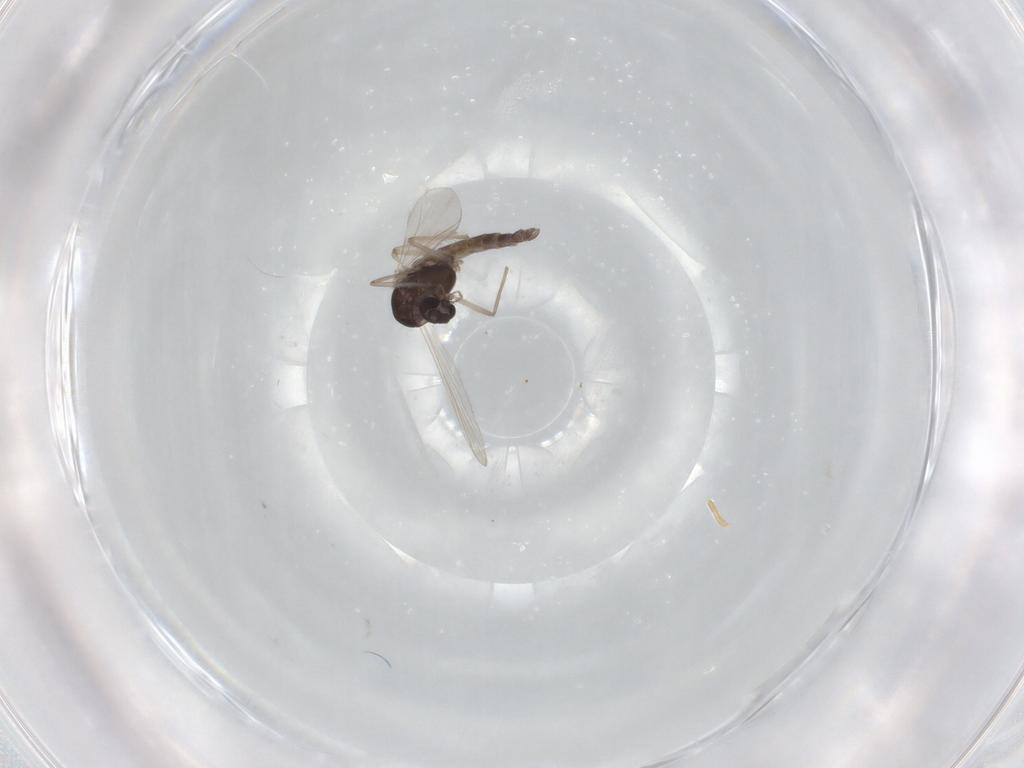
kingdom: Animalia
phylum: Arthropoda
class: Insecta
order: Diptera
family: Chironomidae
